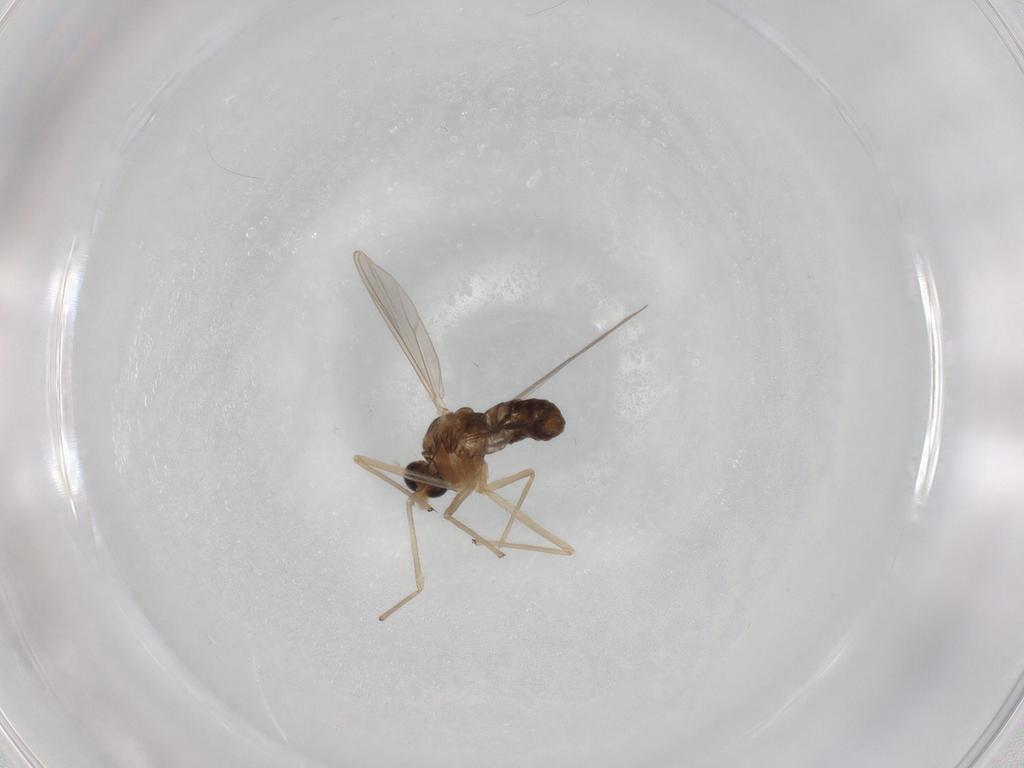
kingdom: Animalia
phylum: Arthropoda
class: Insecta
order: Diptera
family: Chironomidae
